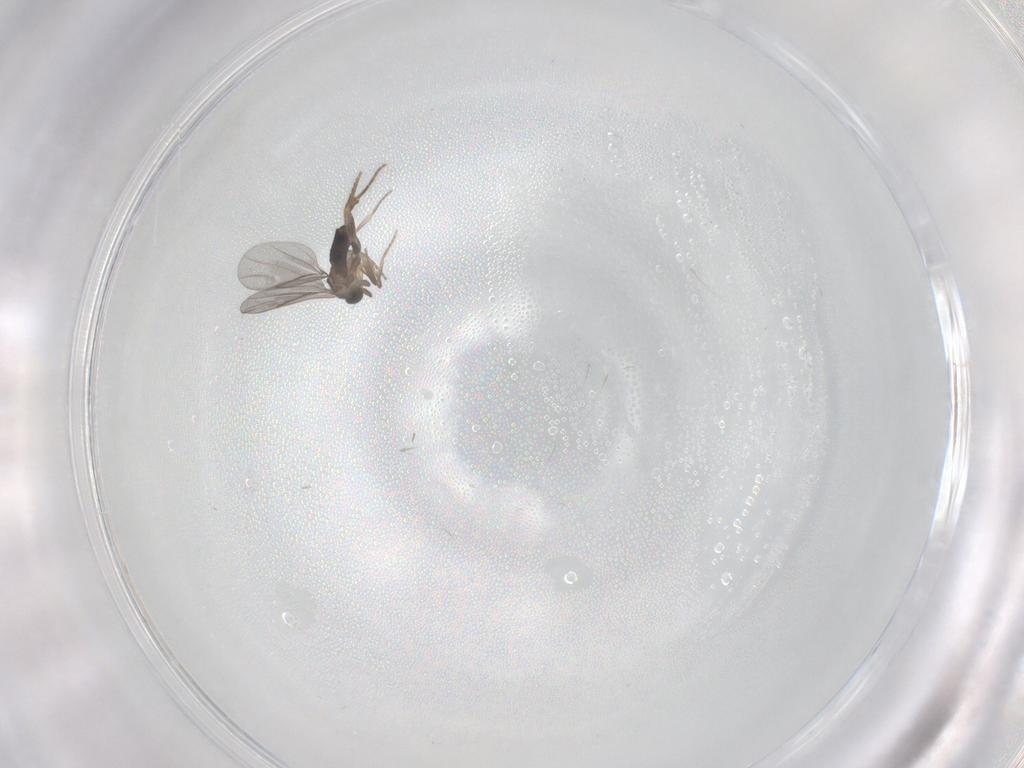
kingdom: Animalia
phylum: Arthropoda
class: Insecta
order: Diptera
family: Cecidomyiidae
